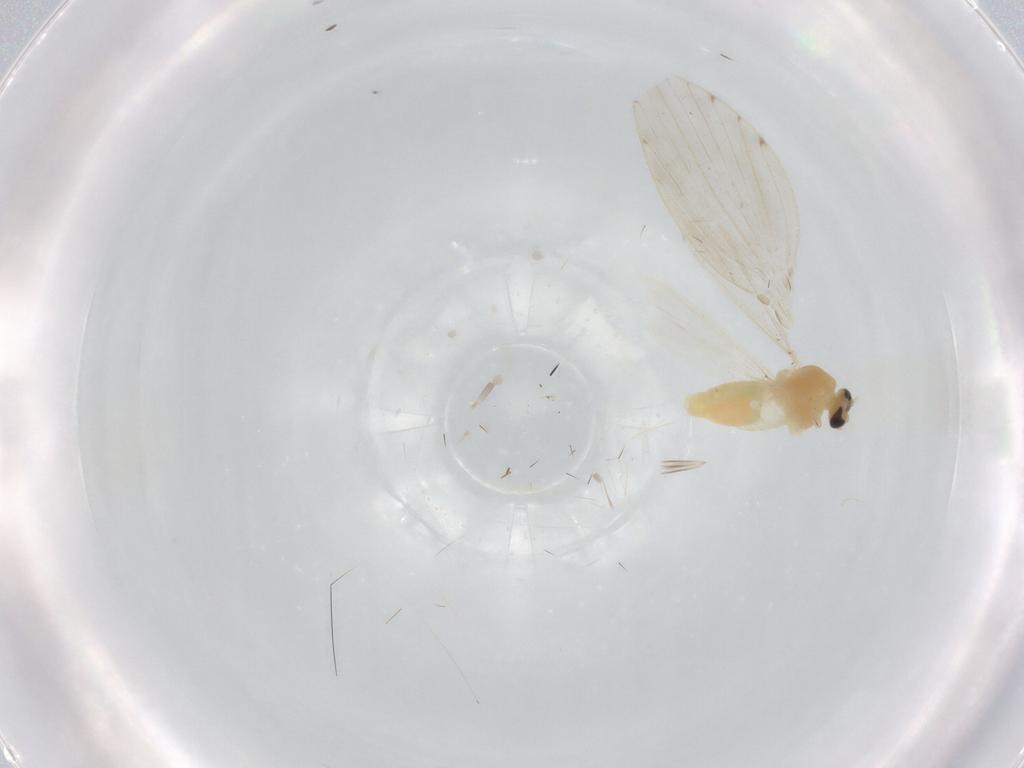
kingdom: Animalia
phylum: Arthropoda
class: Insecta
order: Diptera
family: Chironomidae
